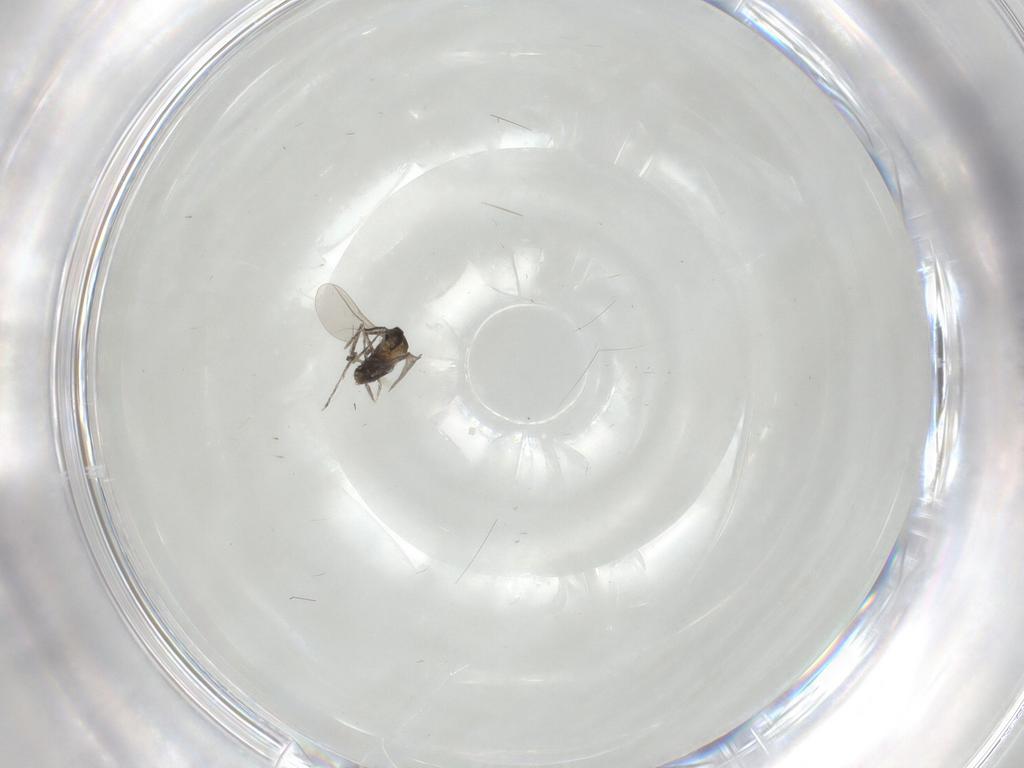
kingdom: Animalia
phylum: Arthropoda
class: Insecta
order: Diptera
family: Cecidomyiidae
